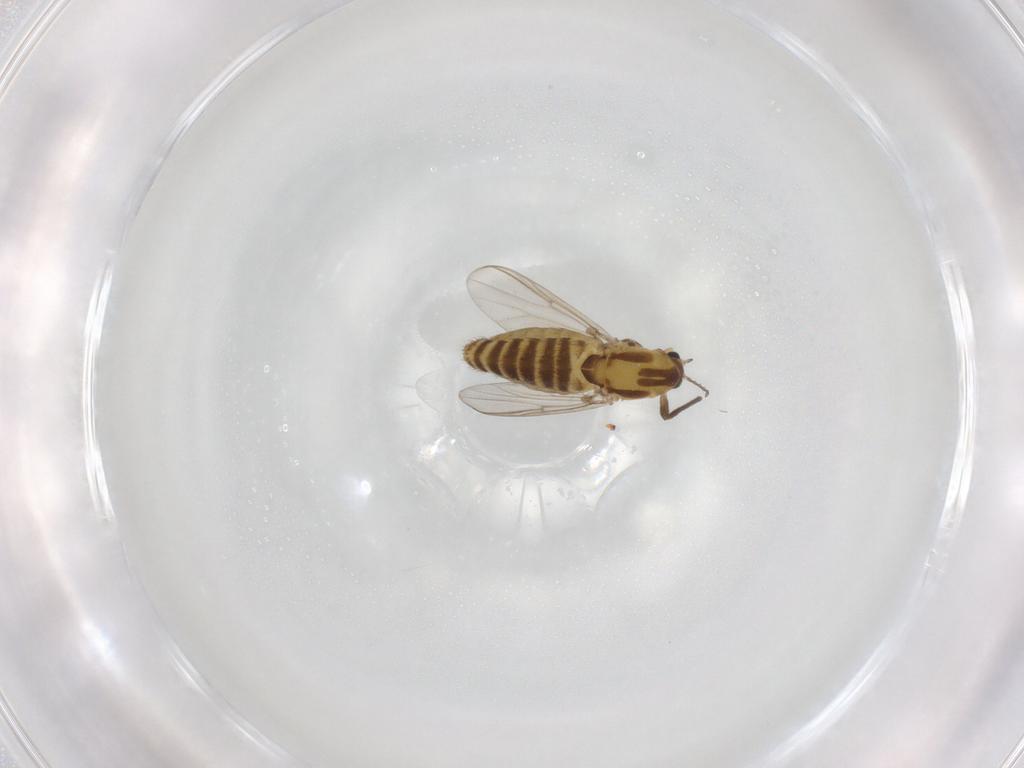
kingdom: Animalia
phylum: Arthropoda
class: Insecta
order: Diptera
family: Chironomidae
